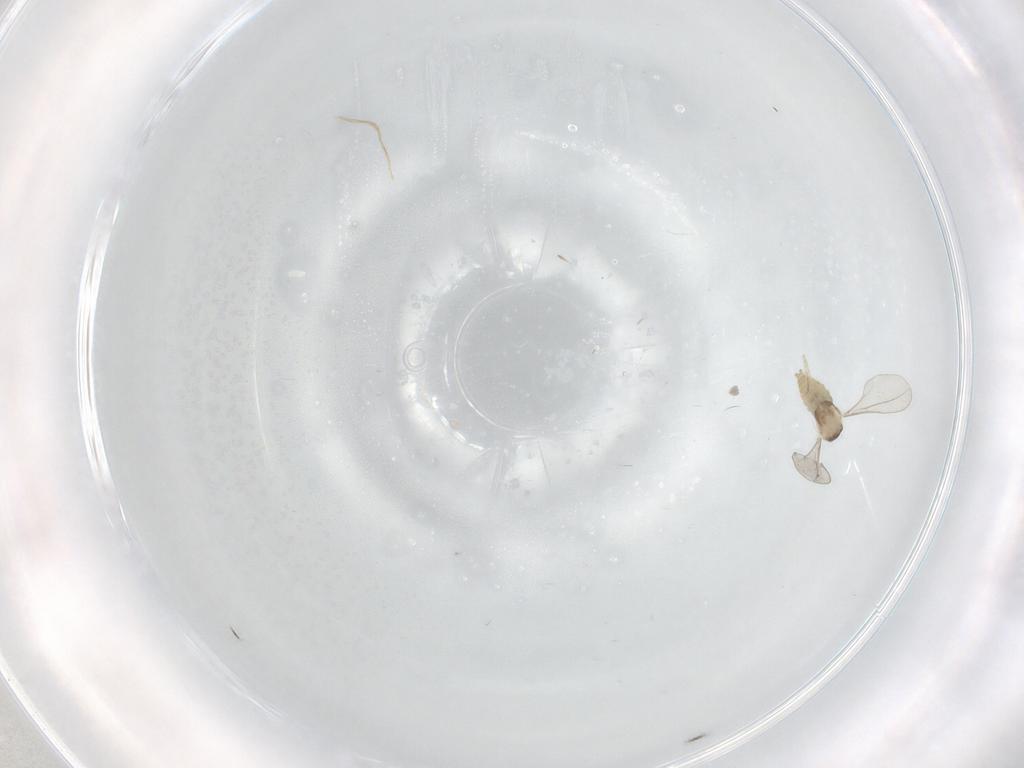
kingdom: Animalia
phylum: Arthropoda
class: Insecta
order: Diptera
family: Cecidomyiidae
